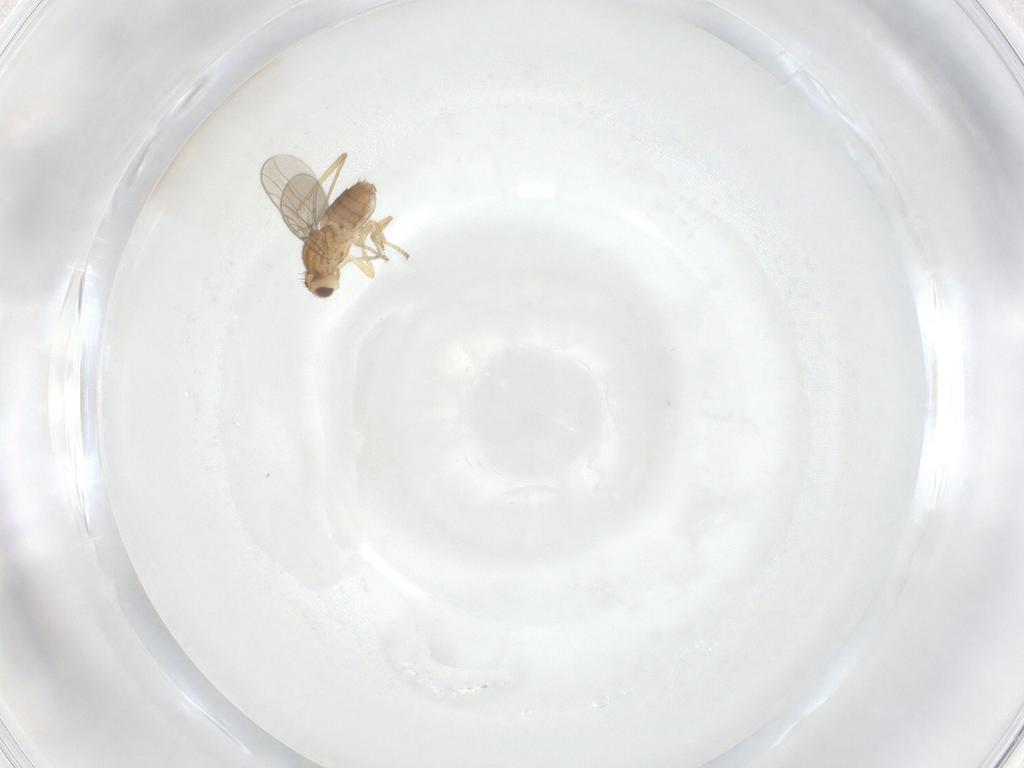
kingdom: Animalia
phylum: Arthropoda
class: Insecta
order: Diptera
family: Chloropidae
